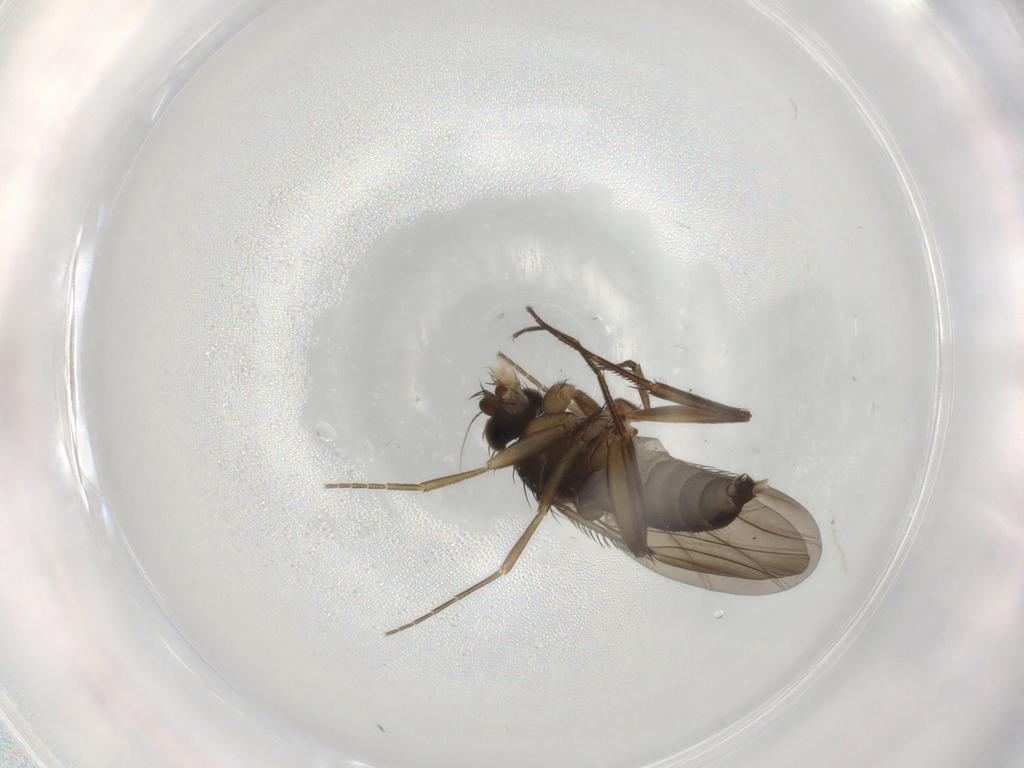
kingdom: Animalia
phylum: Arthropoda
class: Insecta
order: Diptera
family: Phoridae
